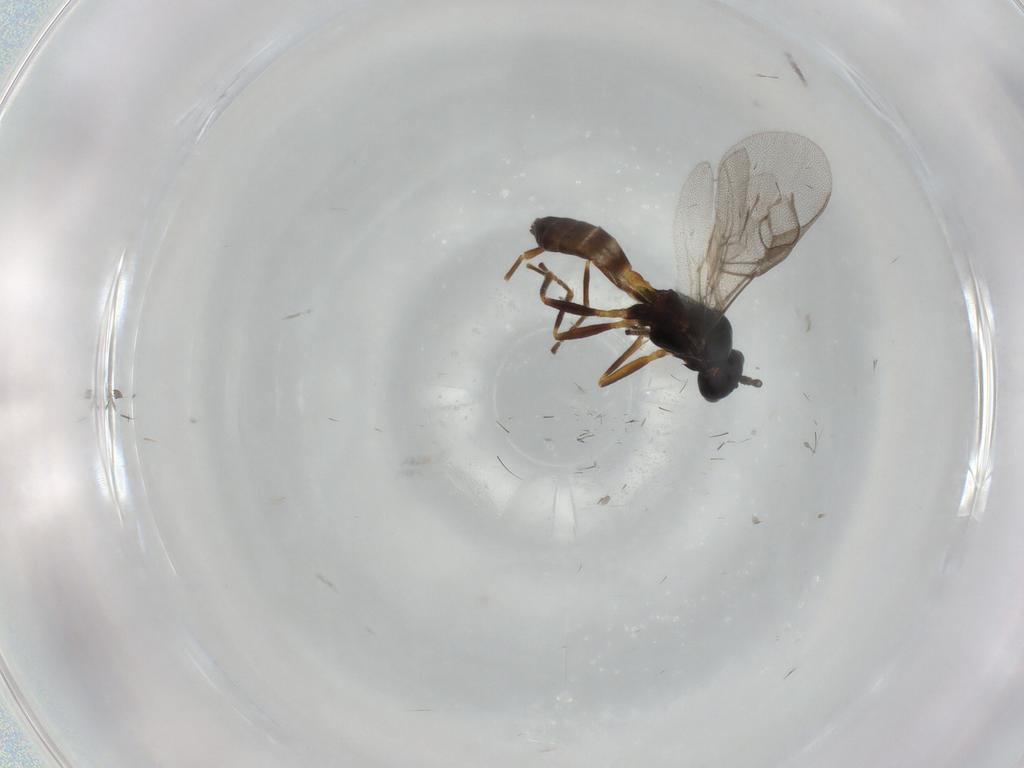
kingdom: Animalia
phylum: Arthropoda
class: Insecta
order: Hymenoptera
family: Braconidae
